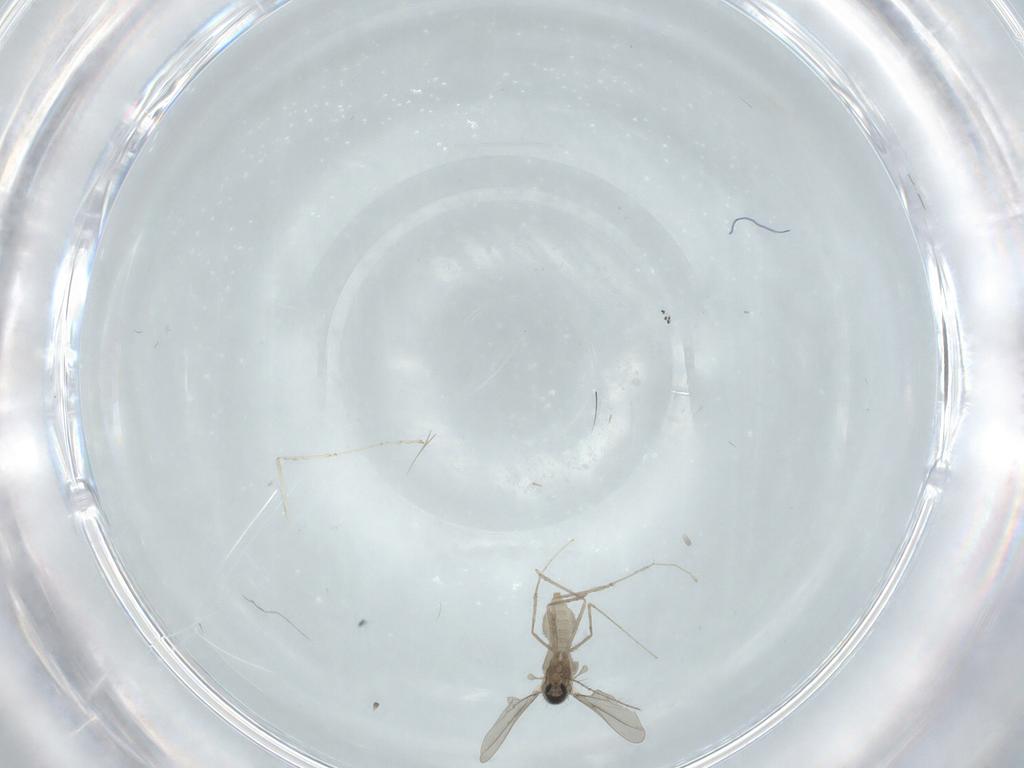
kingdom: Animalia
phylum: Arthropoda
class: Insecta
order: Diptera
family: Cecidomyiidae
